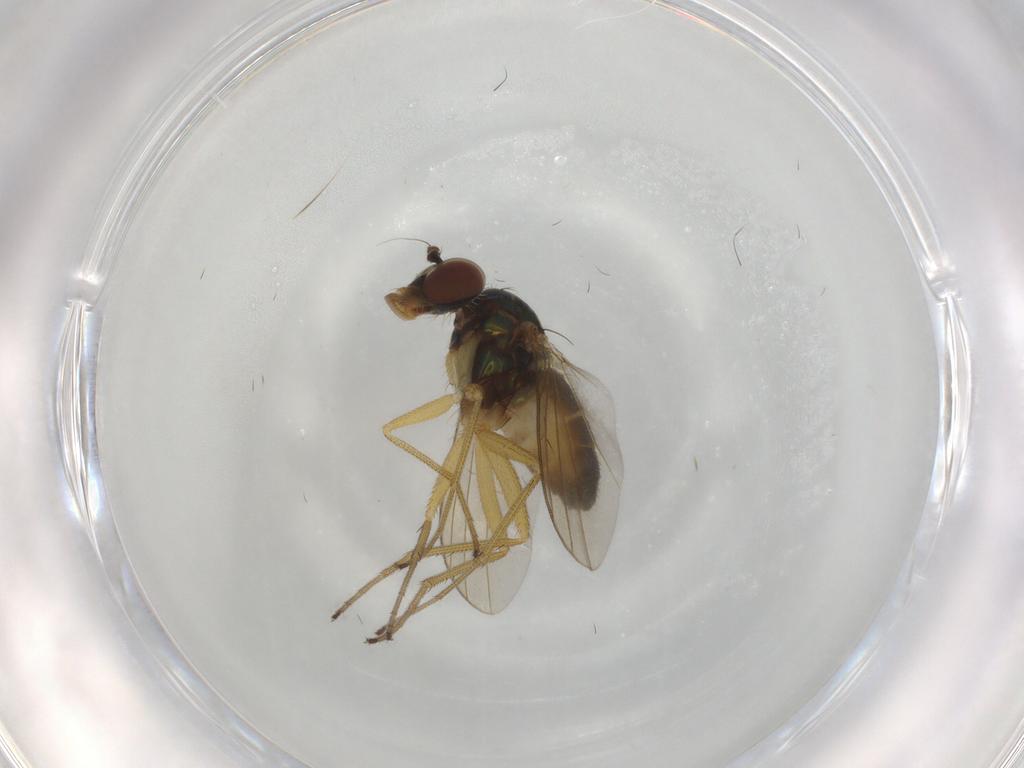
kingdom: Animalia
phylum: Arthropoda
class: Insecta
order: Diptera
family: Dolichopodidae
